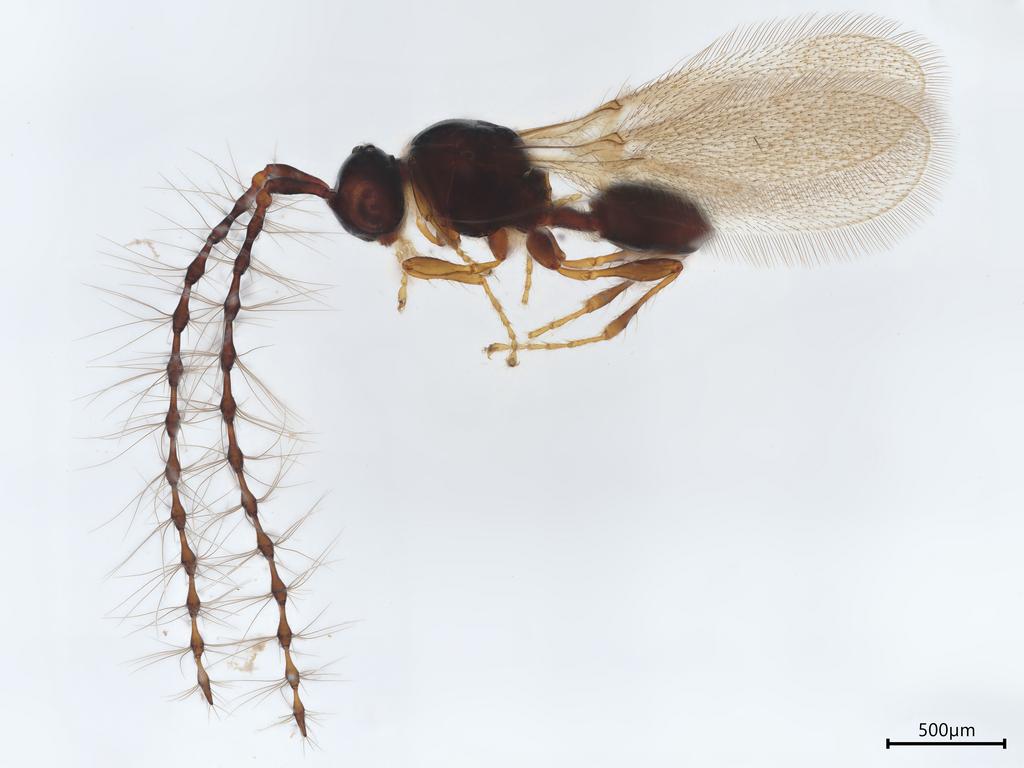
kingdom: Animalia
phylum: Arthropoda
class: Insecta
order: Hymenoptera
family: Diapriidae
